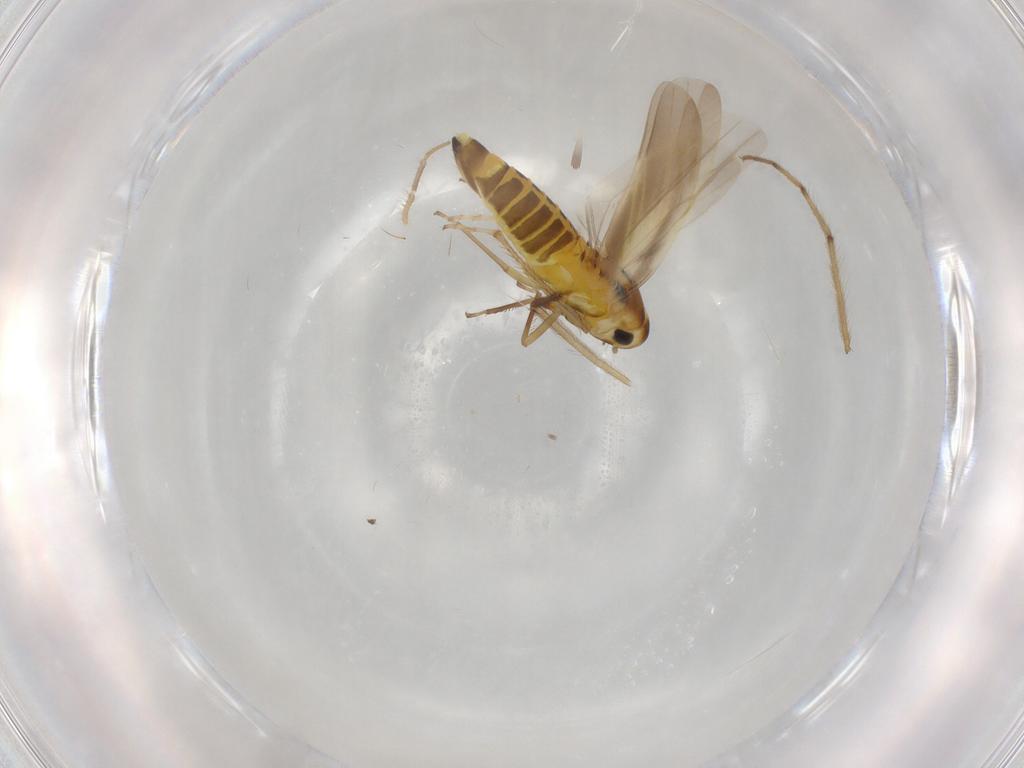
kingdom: Animalia
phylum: Arthropoda
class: Insecta
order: Hemiptera
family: Cicadellidae
